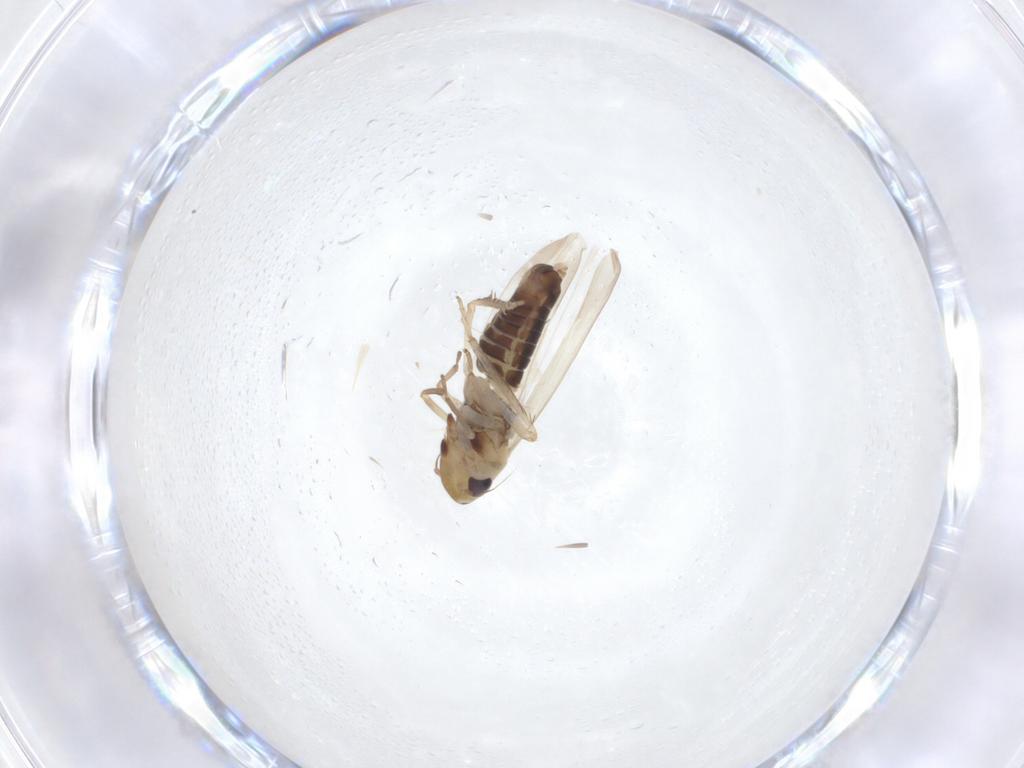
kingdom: Animalia
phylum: Arthropoda
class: Insecta
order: Hemiptera
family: Cicadellidae
